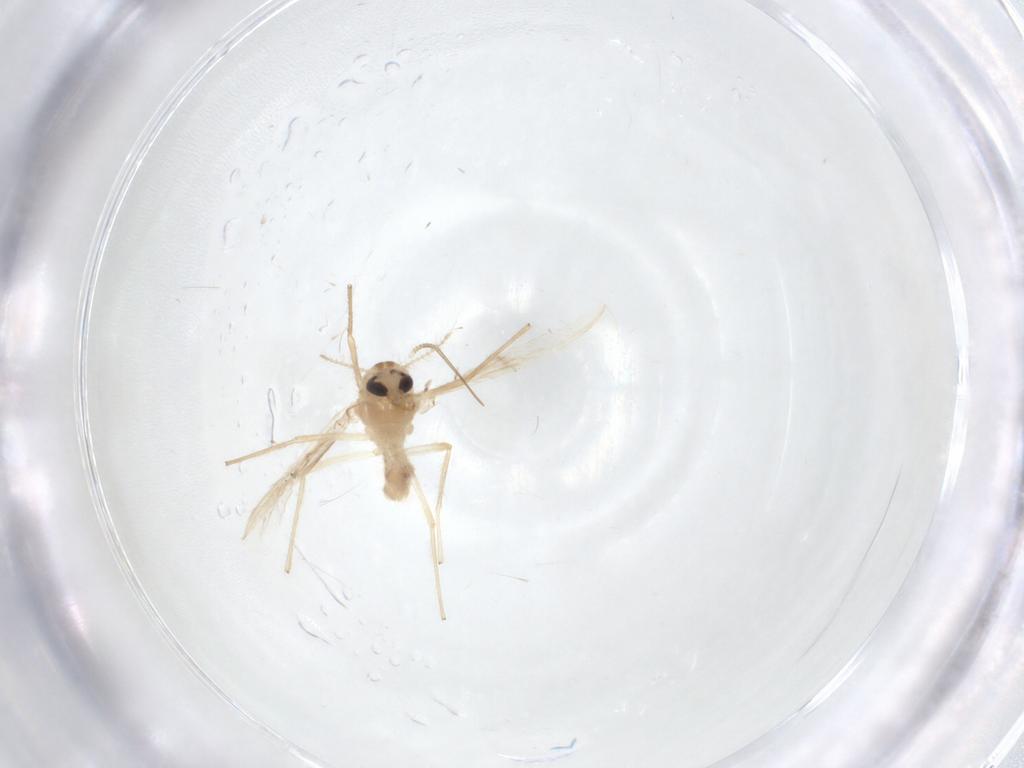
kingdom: Animalia
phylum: Arthropoda
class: Insecta
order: Diptera
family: Chironomidae
